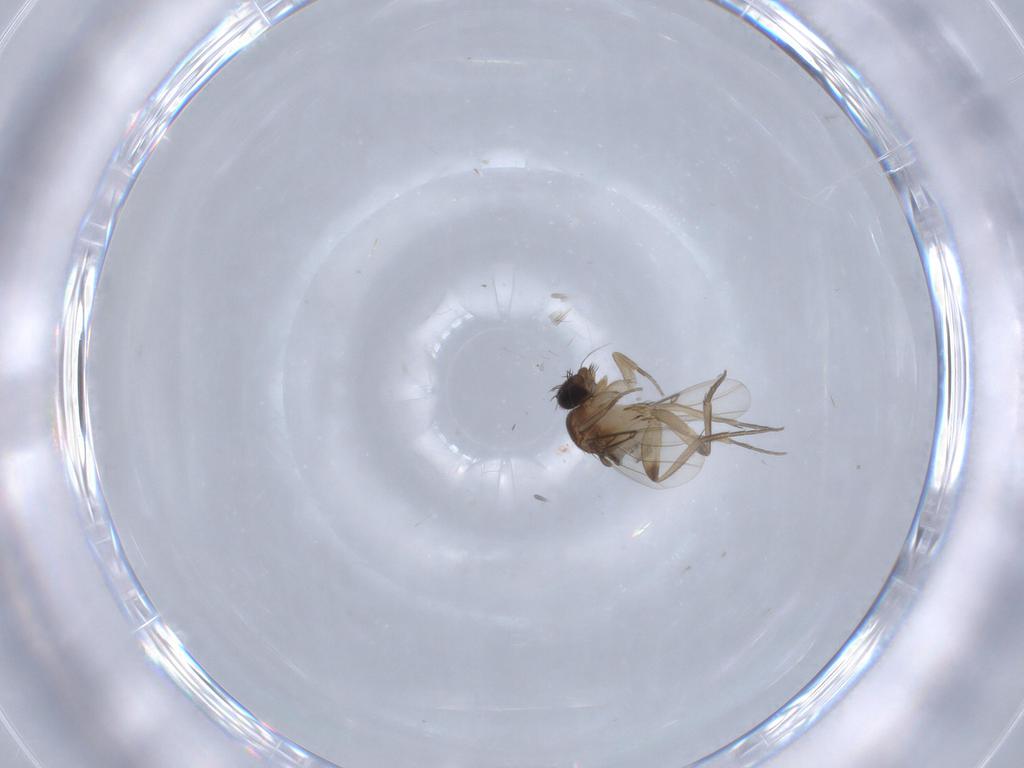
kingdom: Animalia
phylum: Arthropoda
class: Insecta
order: Diptera
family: Phoridae
